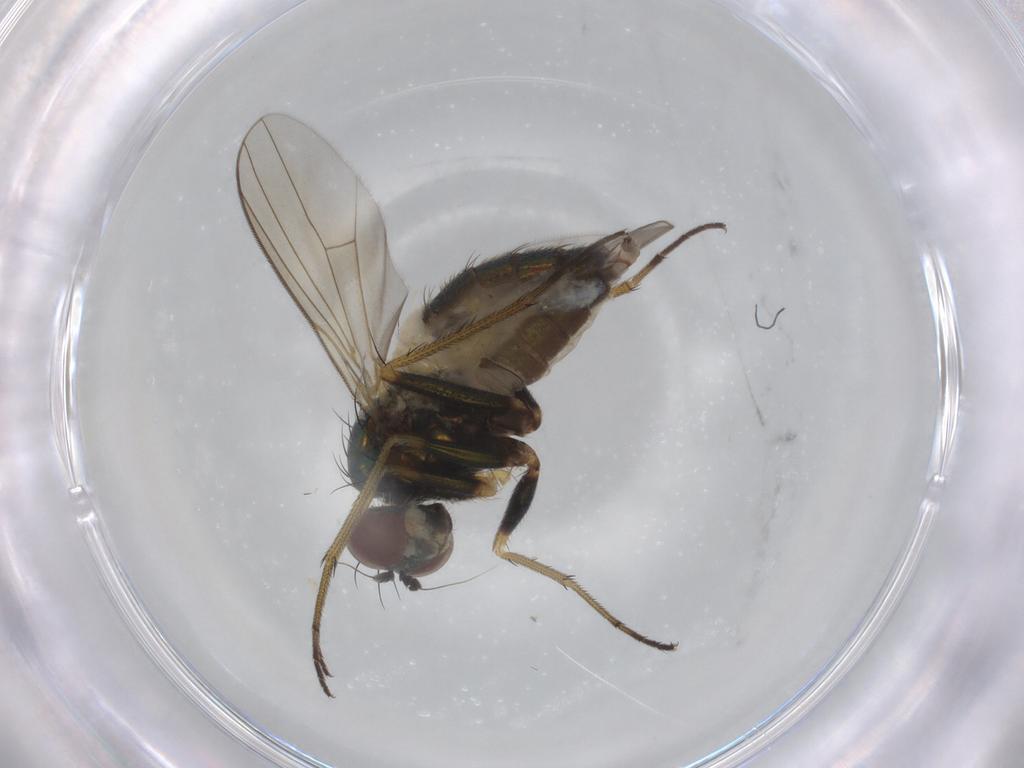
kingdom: Animalia
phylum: Arthropoda
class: Insecta
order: Diptera
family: Dolichopodidae
